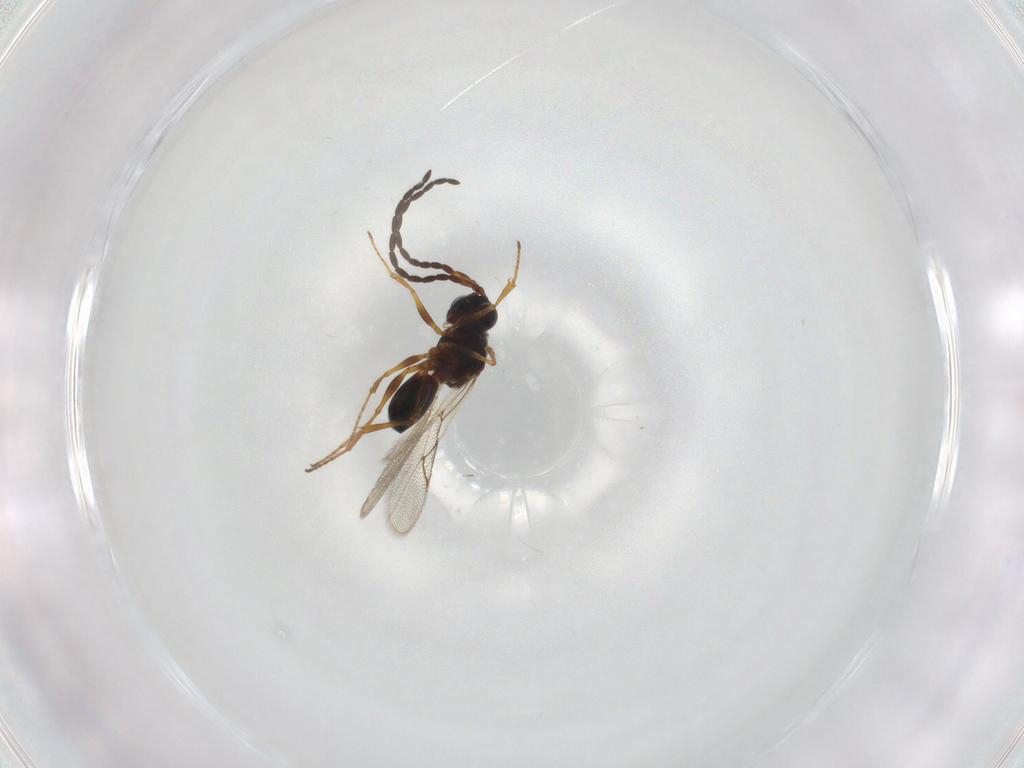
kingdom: Animalia
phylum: Arthropoda
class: Insecta
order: Hymenoptera
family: Figitidae
